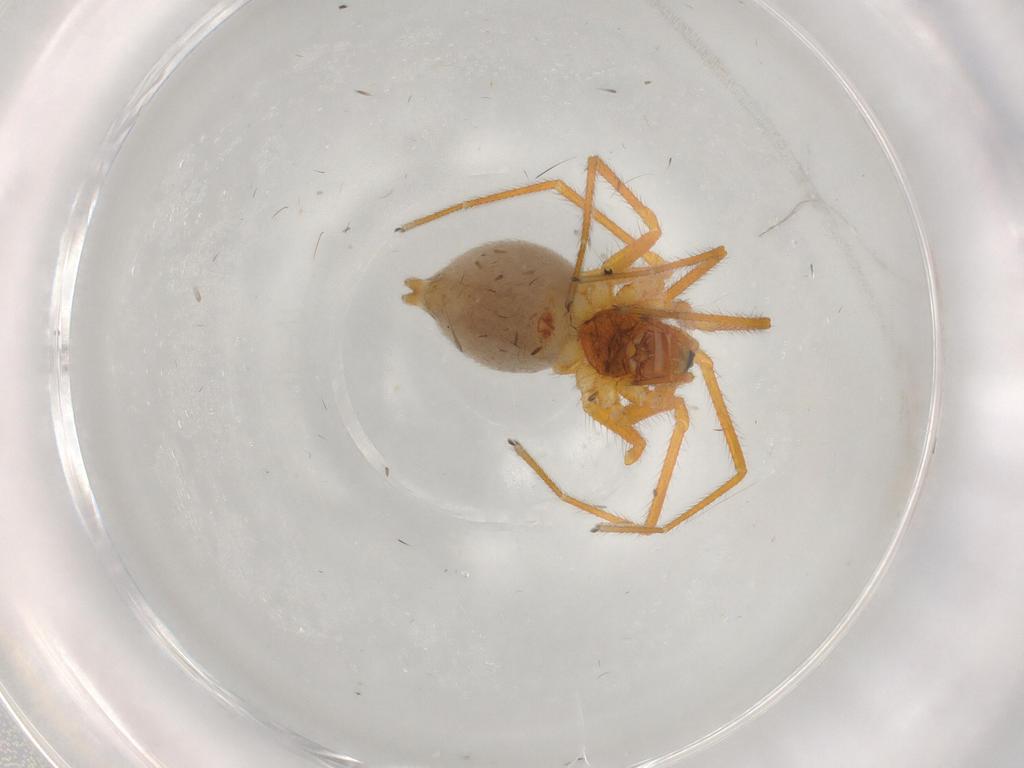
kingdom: Animalia
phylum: Arthropoda
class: Arachnida
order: Araneae
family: Linyphiidae
